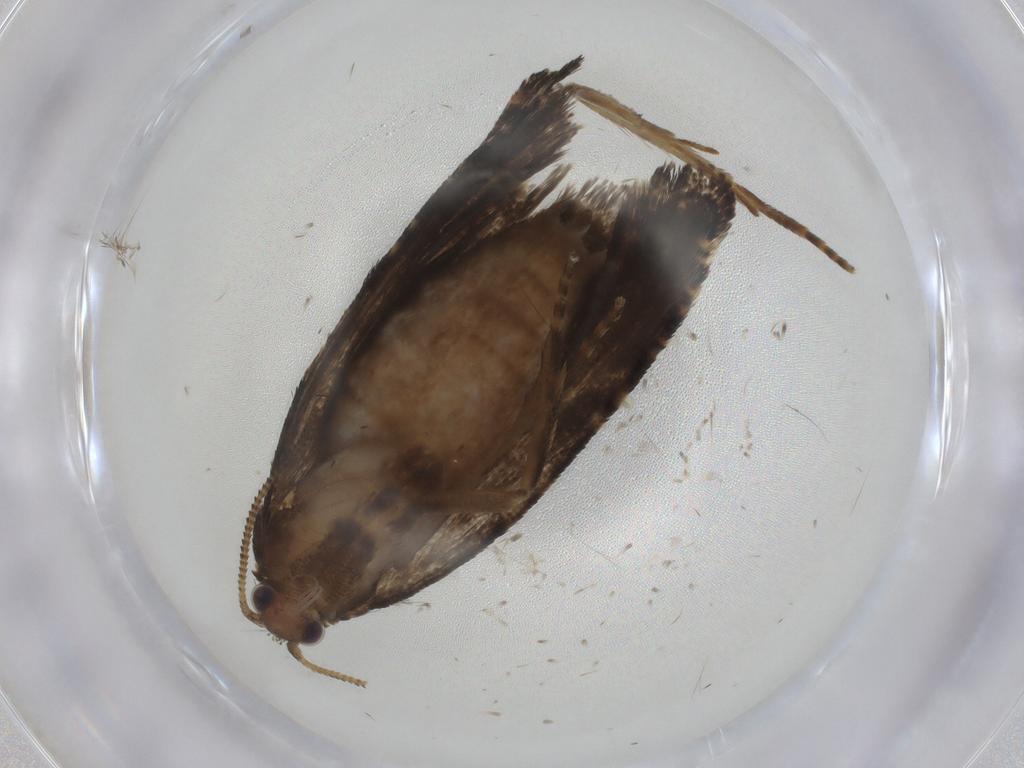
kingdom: Animalia
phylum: Arthropoda
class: Insecta
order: Lepidoptera
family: Tortricidae
